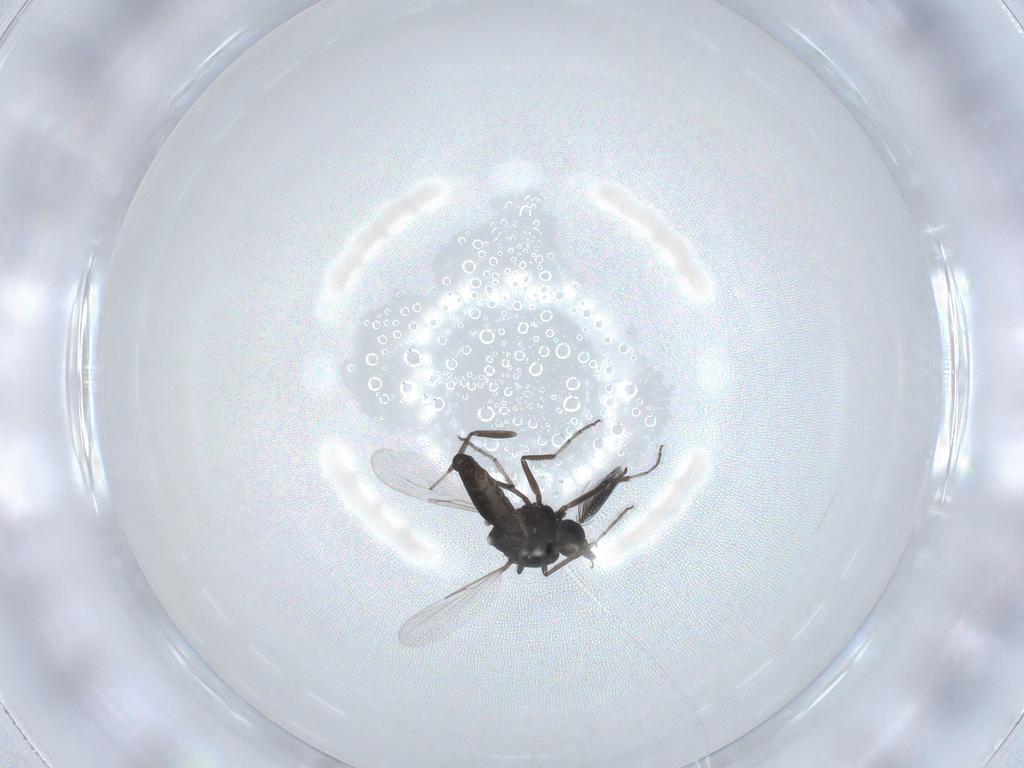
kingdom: Animalia
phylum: Arthropoda
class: Insecta
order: Diptera
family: Ceratopogonidae
